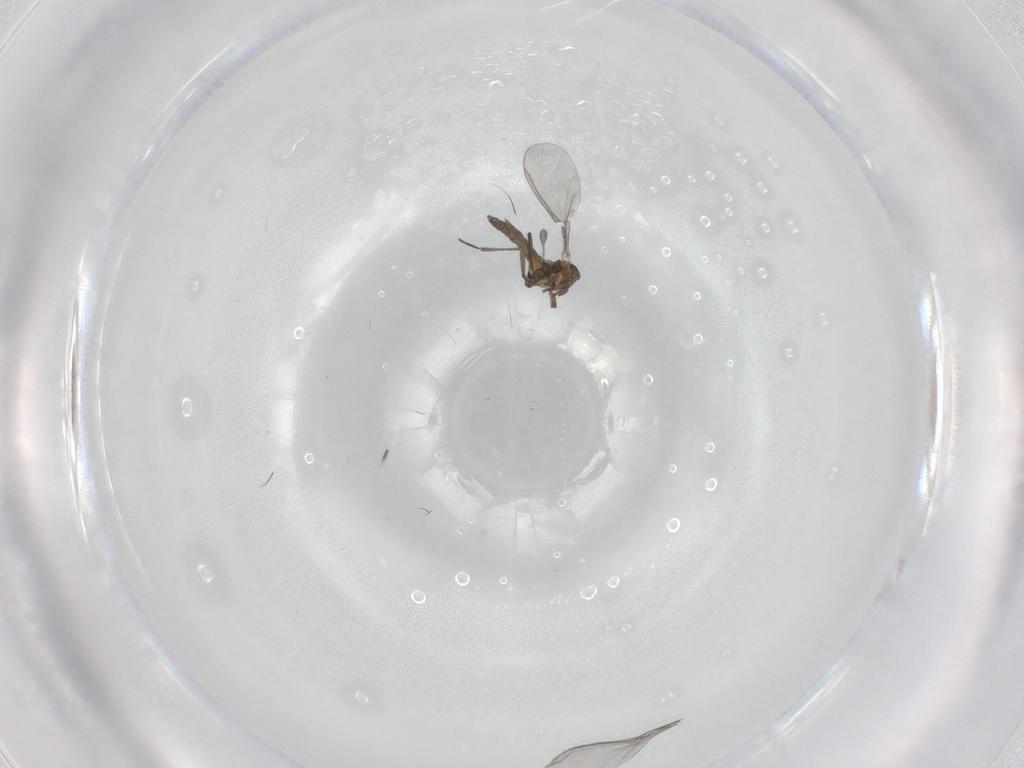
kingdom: Animalia
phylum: Arthropoda
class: Insecta
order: Diptera
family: Sciaridae
